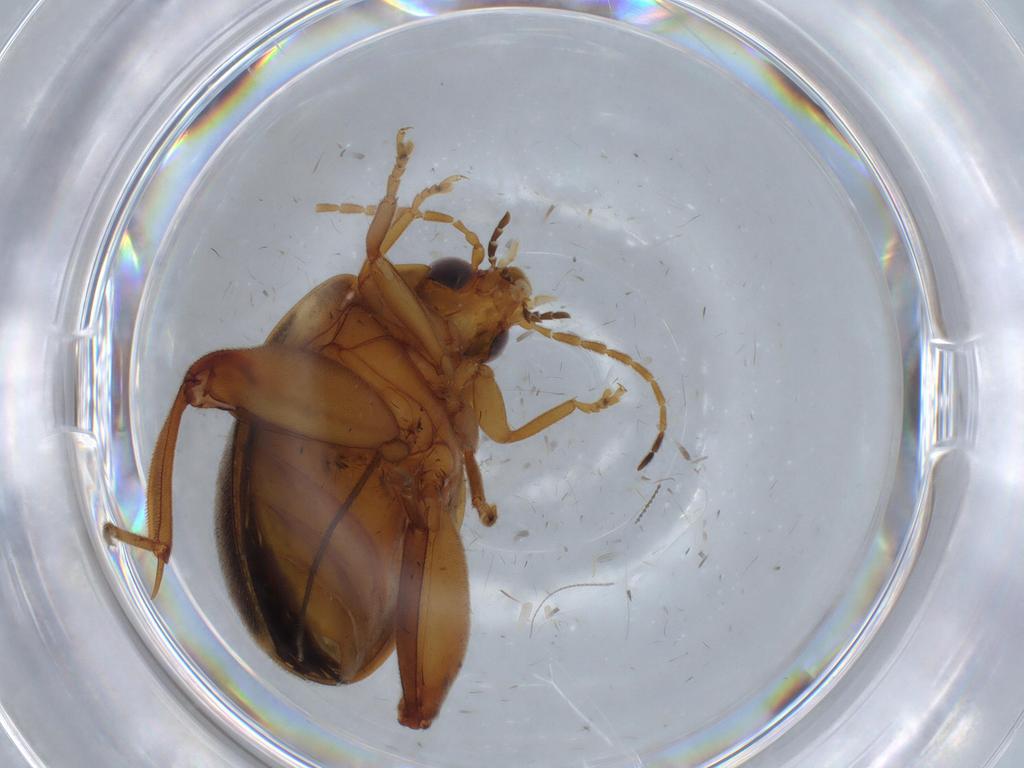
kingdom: Animalia
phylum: Arthropoda
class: Insecta
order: Coleoptera
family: Scirtidae
